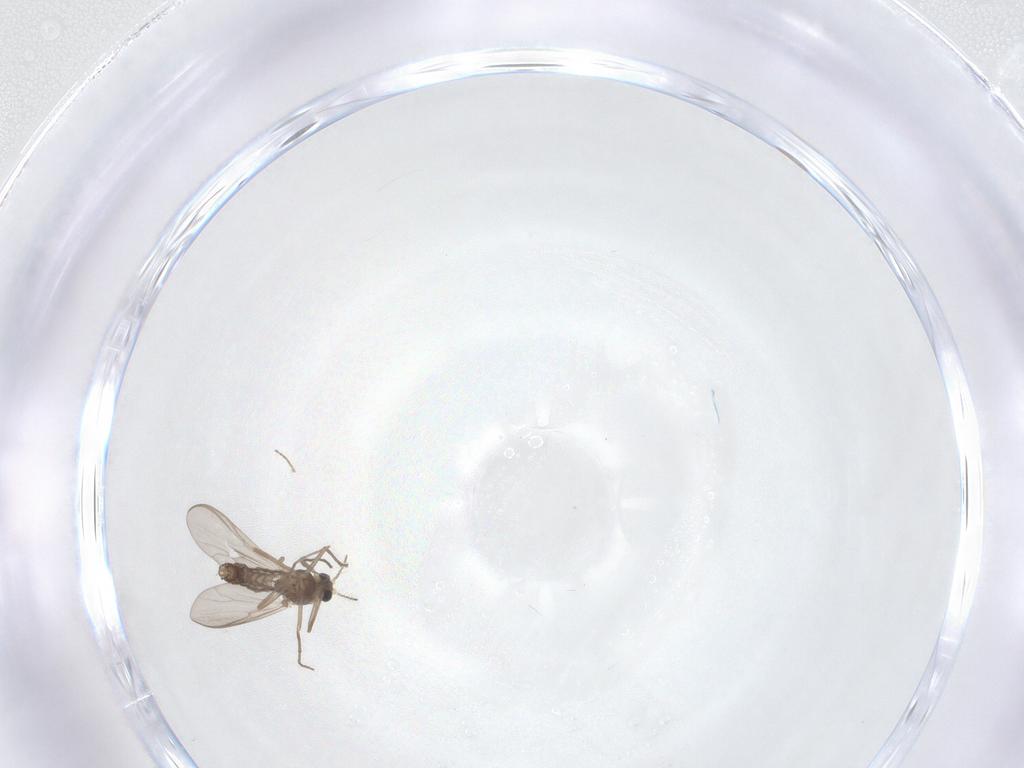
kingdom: Animalia
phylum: Arthropoda
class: Insecta
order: Diptera
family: Chironomidae
